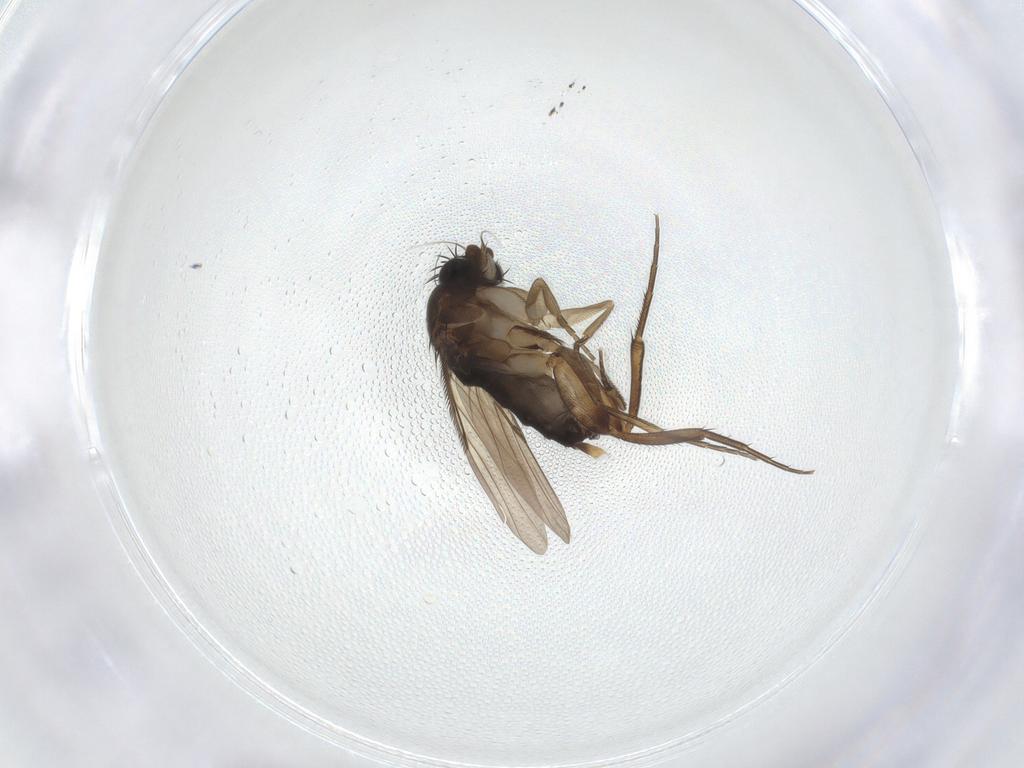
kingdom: Animalia
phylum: Arthropoda
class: Insecta
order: Diptera
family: Phoridae
